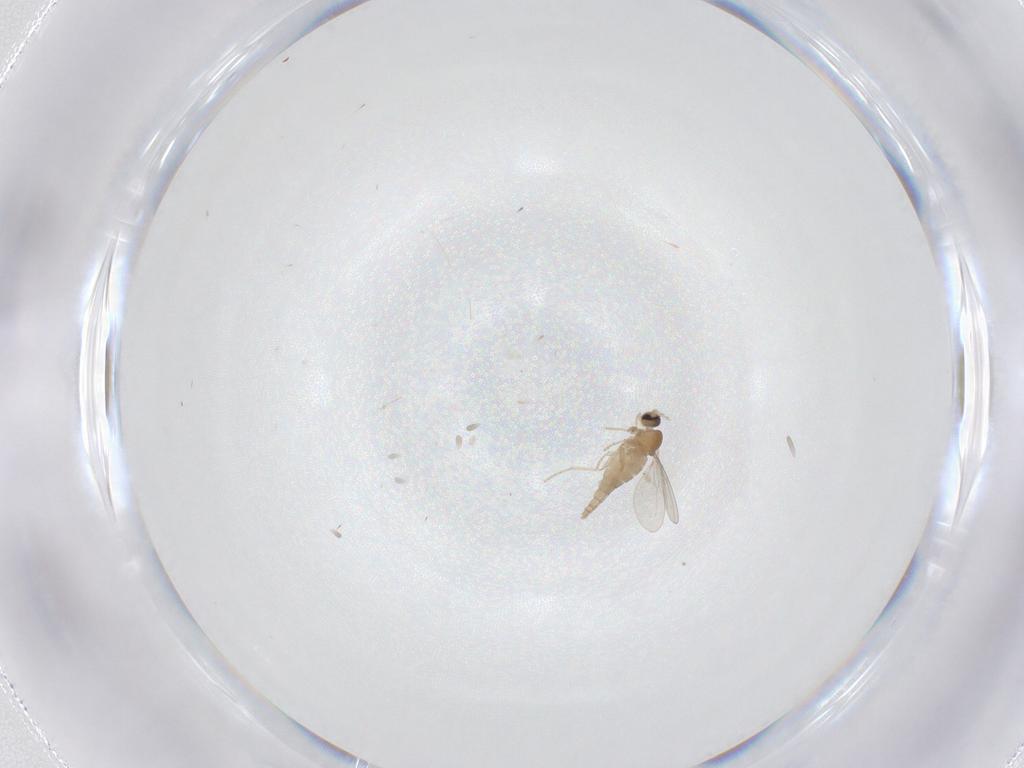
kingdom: Animalia
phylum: Arthropoda
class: Insecta
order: Diptera
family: Cecidomyiidae
